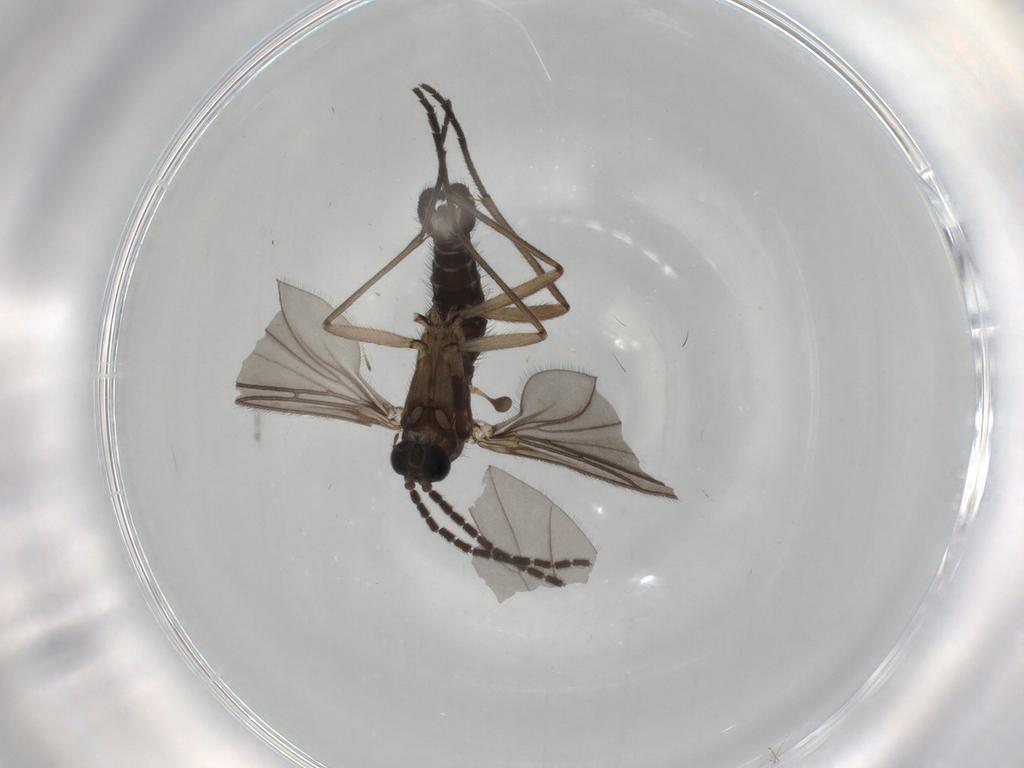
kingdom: Animalia
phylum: Arthropoda
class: Insecta
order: Diptera
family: Sciaridae
